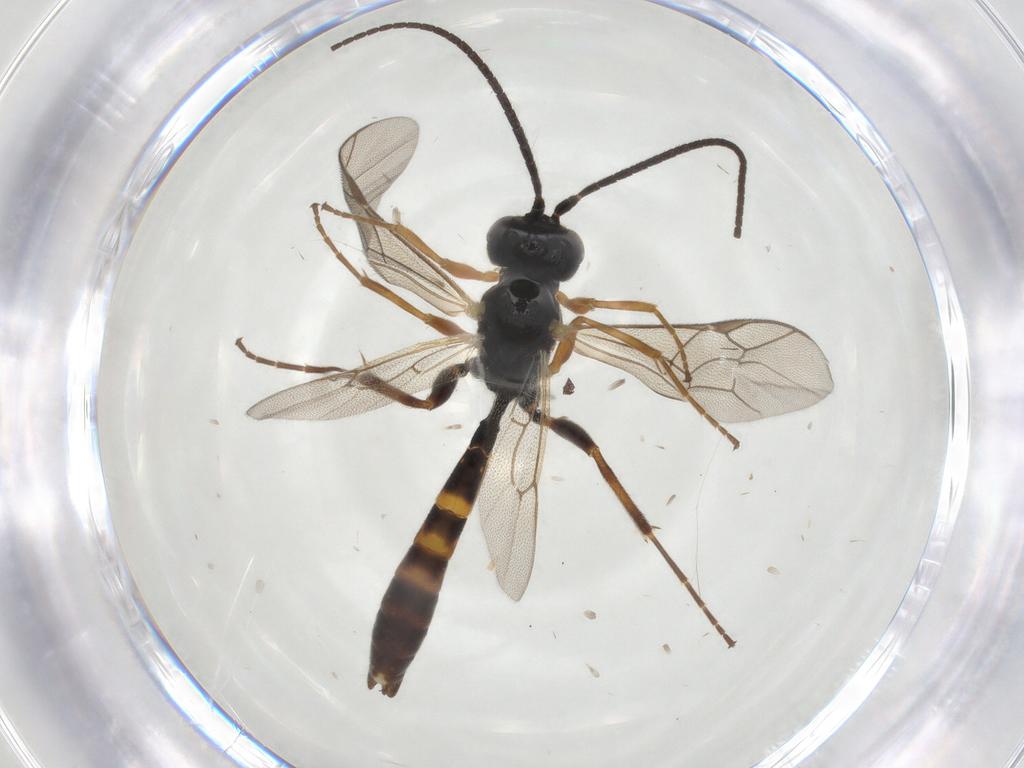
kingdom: Animalia
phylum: Arthropoda
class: Insecta
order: Hymenoptera
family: Ichneumonidae
